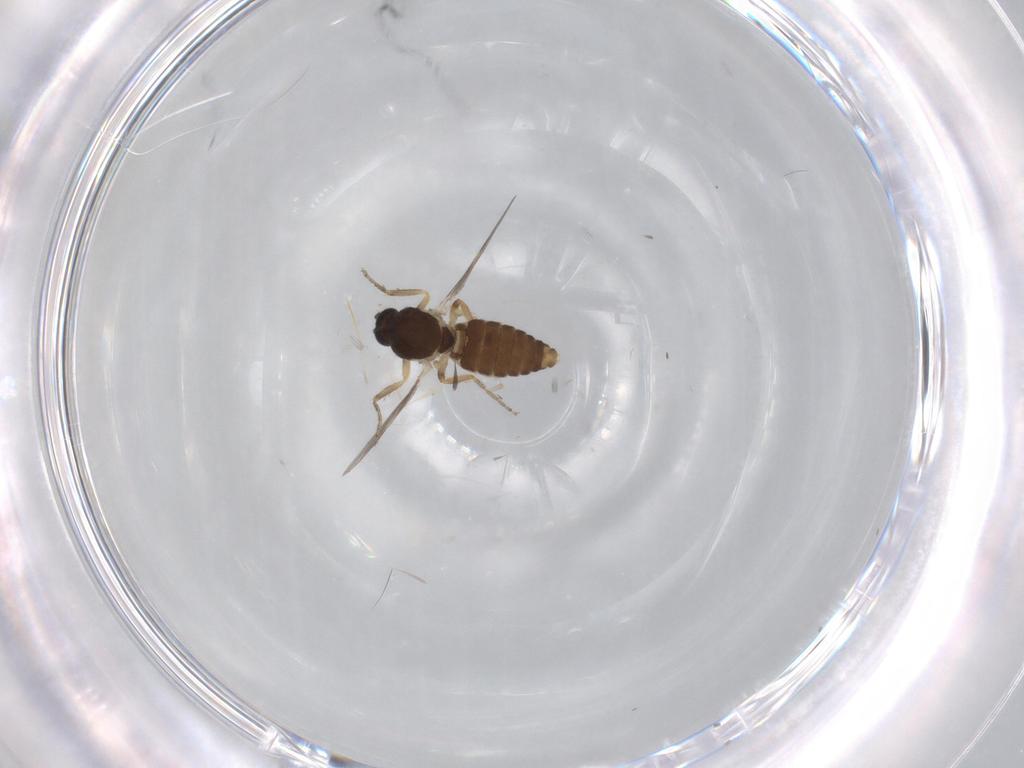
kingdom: Animalia
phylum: Arthropoda
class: Insecta
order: Diptera
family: Ceratopogonidae
